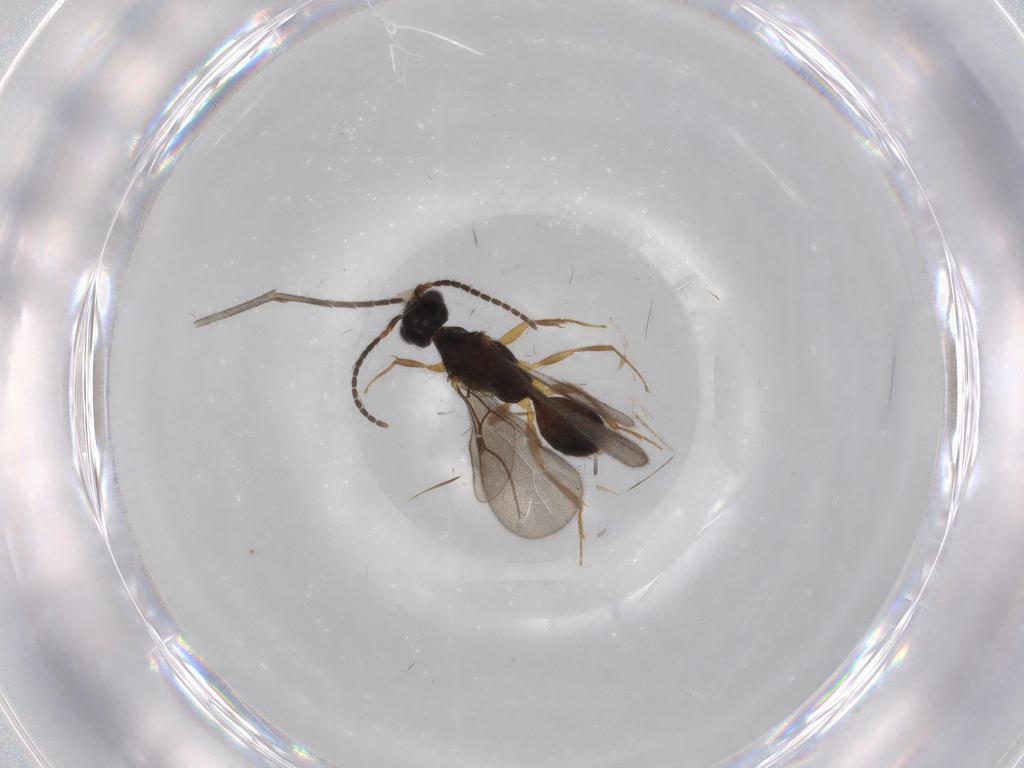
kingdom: Animalia
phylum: Arthropoda
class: Insecta
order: Hymenoptera
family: Bethylidae
